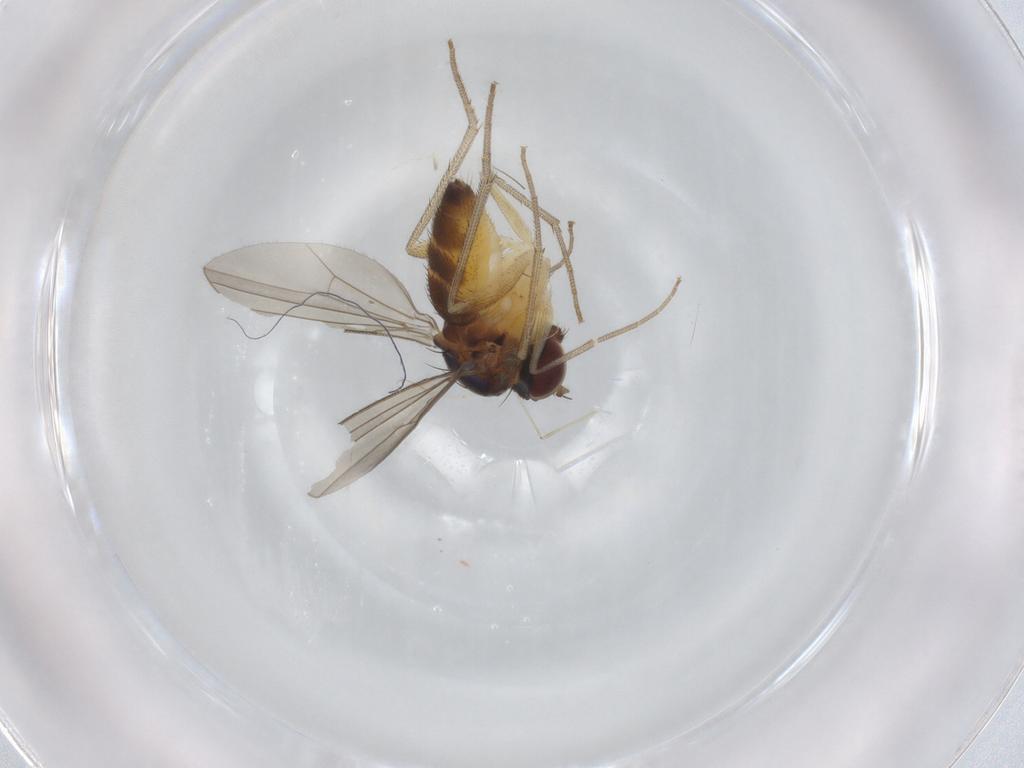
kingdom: Animalia
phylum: Arthropoda
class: Insecta
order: Diptera
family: Dolichopodidae
